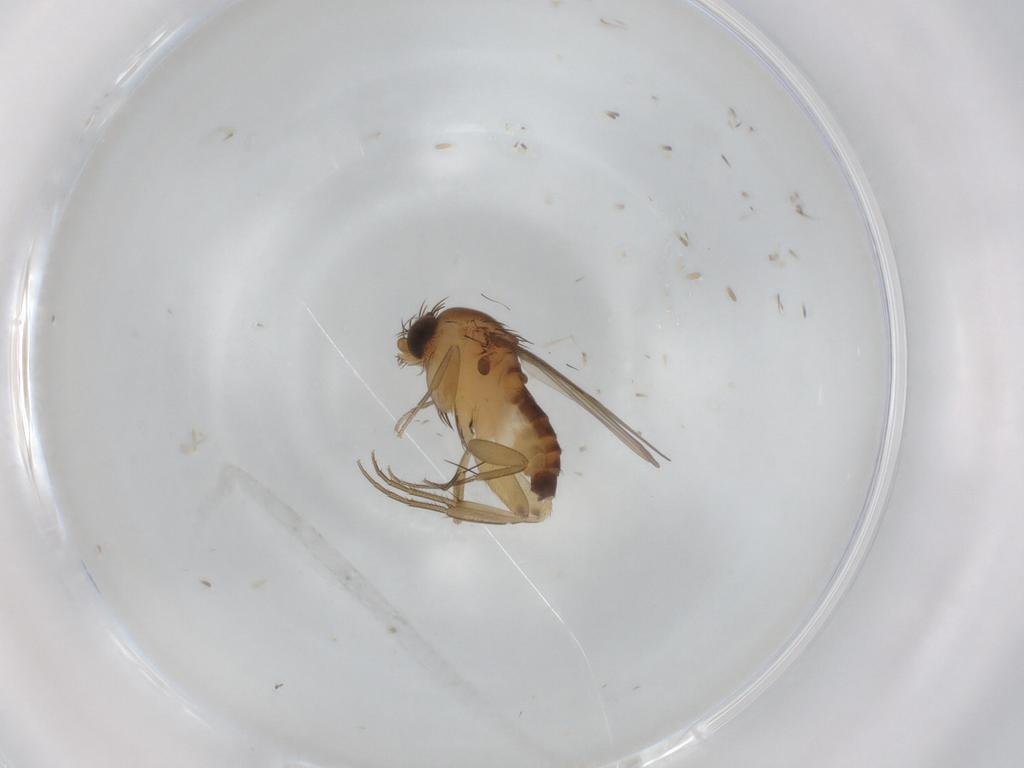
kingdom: Animalia
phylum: Arthropoda
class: Insecta
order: Diptera
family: Phoridae
